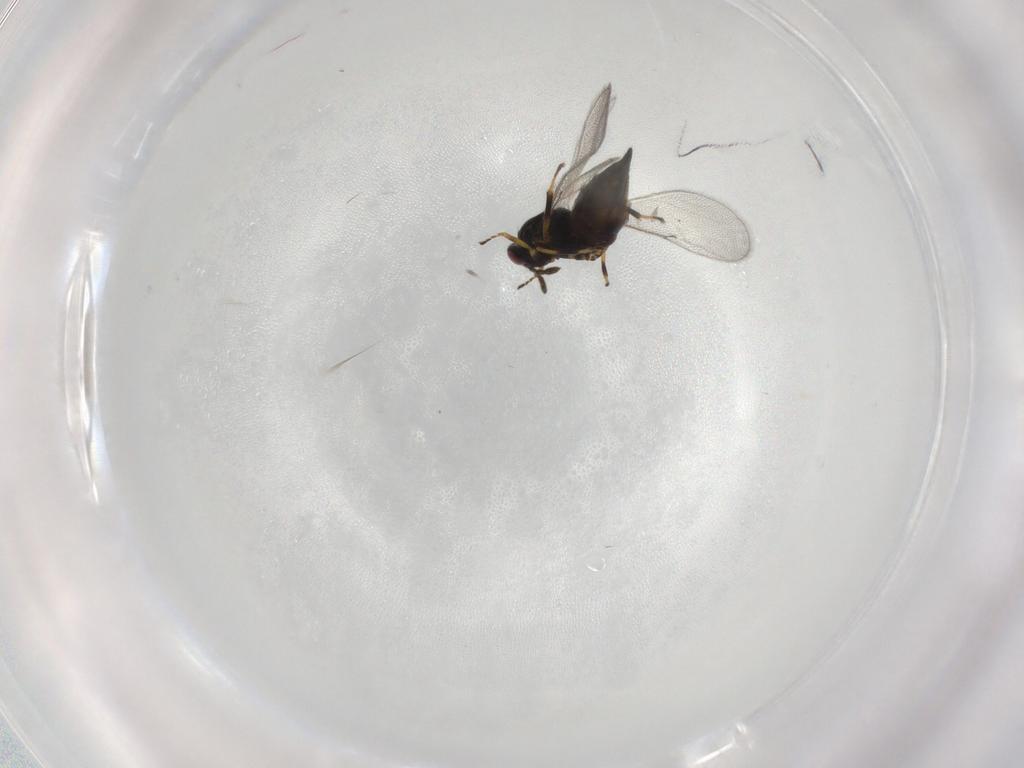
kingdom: Animalia
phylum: Arthropoda
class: Insecta
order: Hymenoptera
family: Eulophidae
